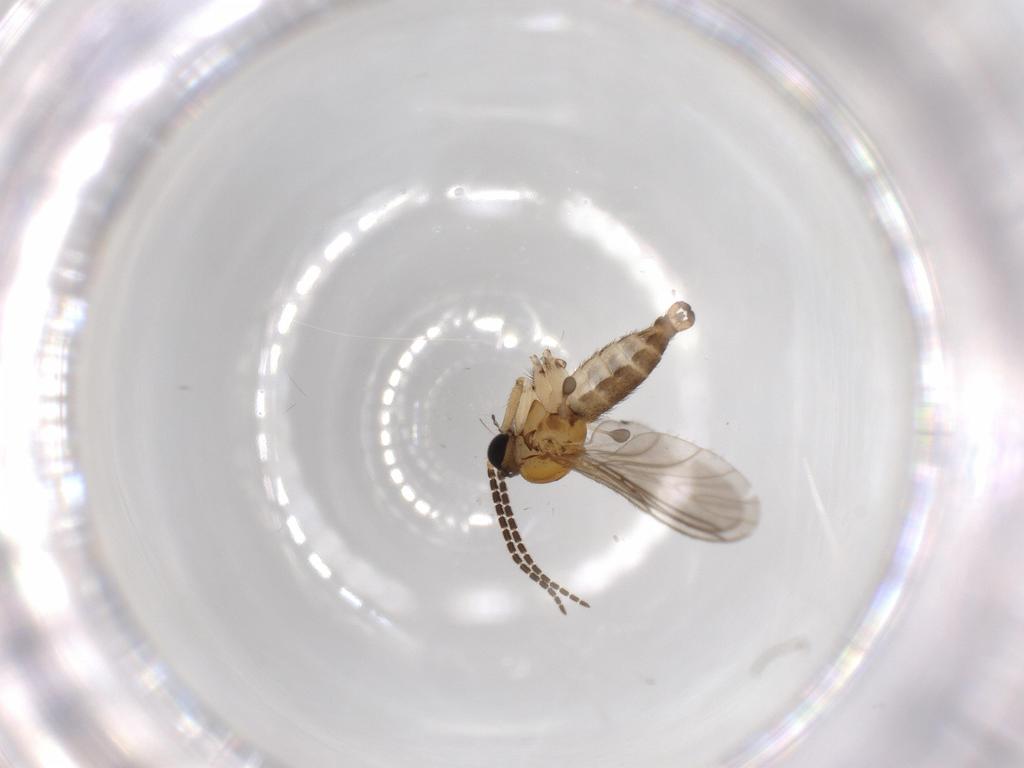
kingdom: Animalia
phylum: Arthropoda
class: Insecta
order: Diptera
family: Sciaridae
